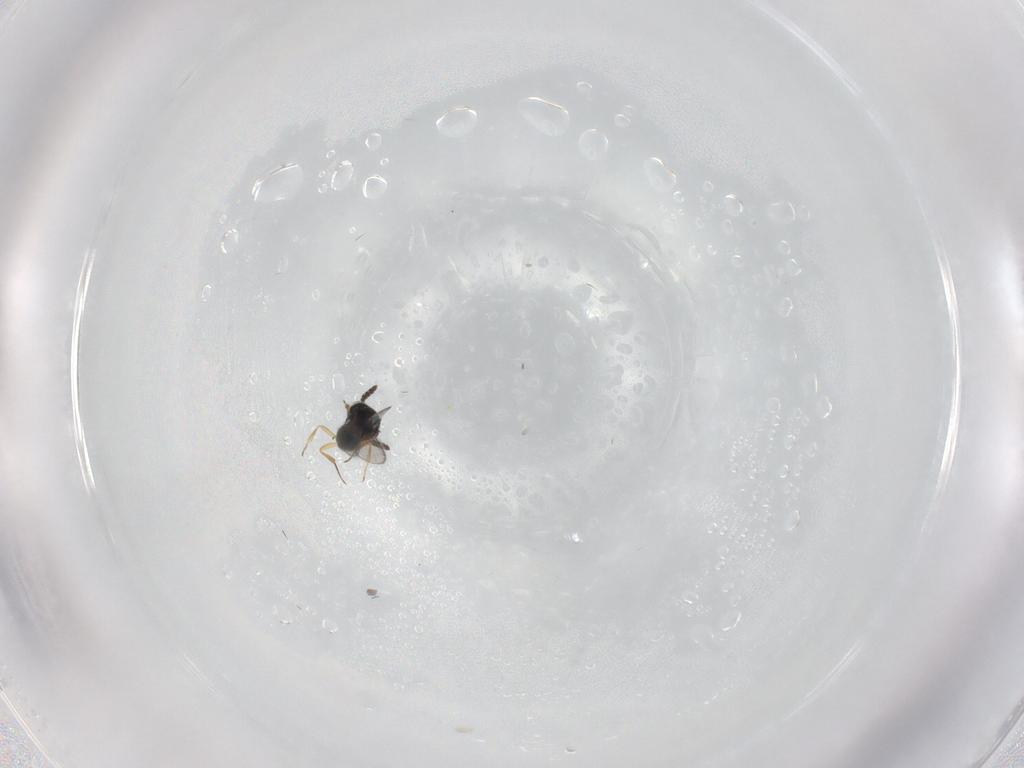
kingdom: Animalia
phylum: Arthropoda
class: Insecta
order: Hymenoptera
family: Scelionidae
